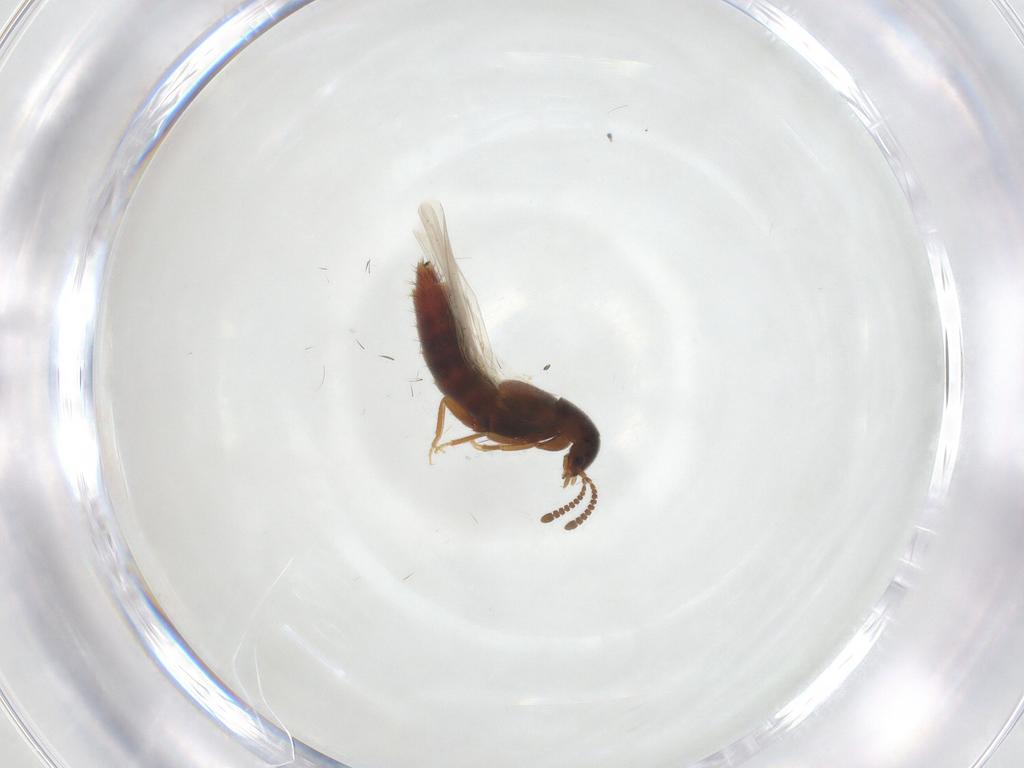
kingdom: Animalia
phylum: Arthropoda
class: Insecta
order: Coleoptera
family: Staphylinidae
